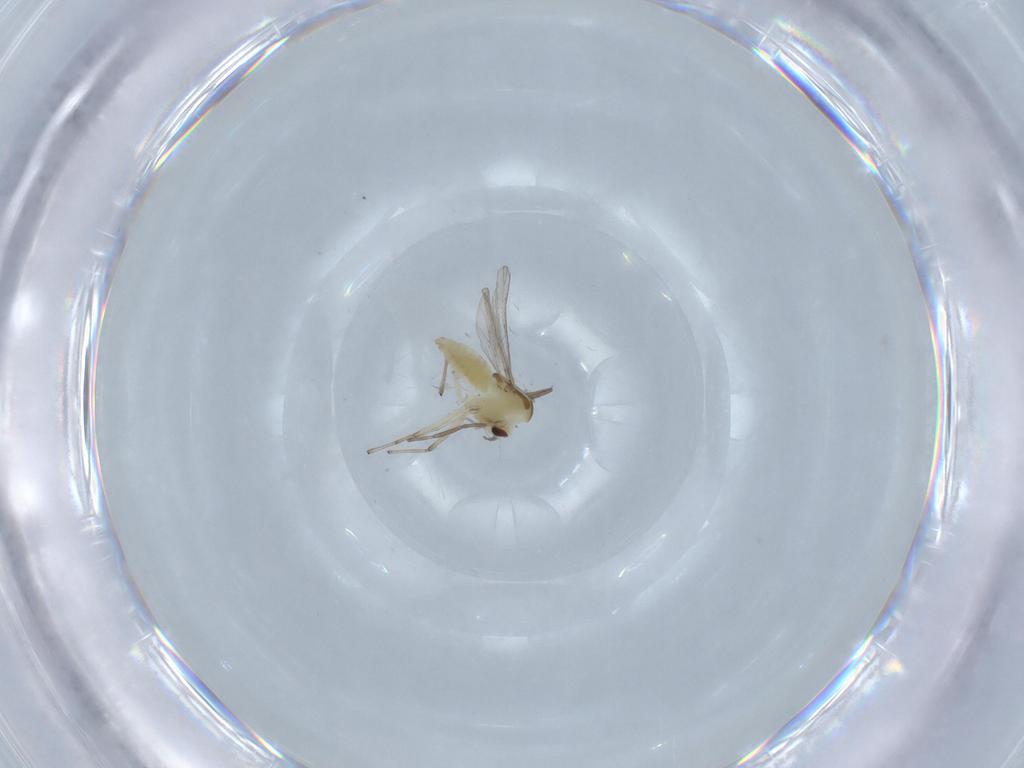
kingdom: Animalia
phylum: Arthropoda
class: Insecta
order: Diptera
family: Chironomidae
